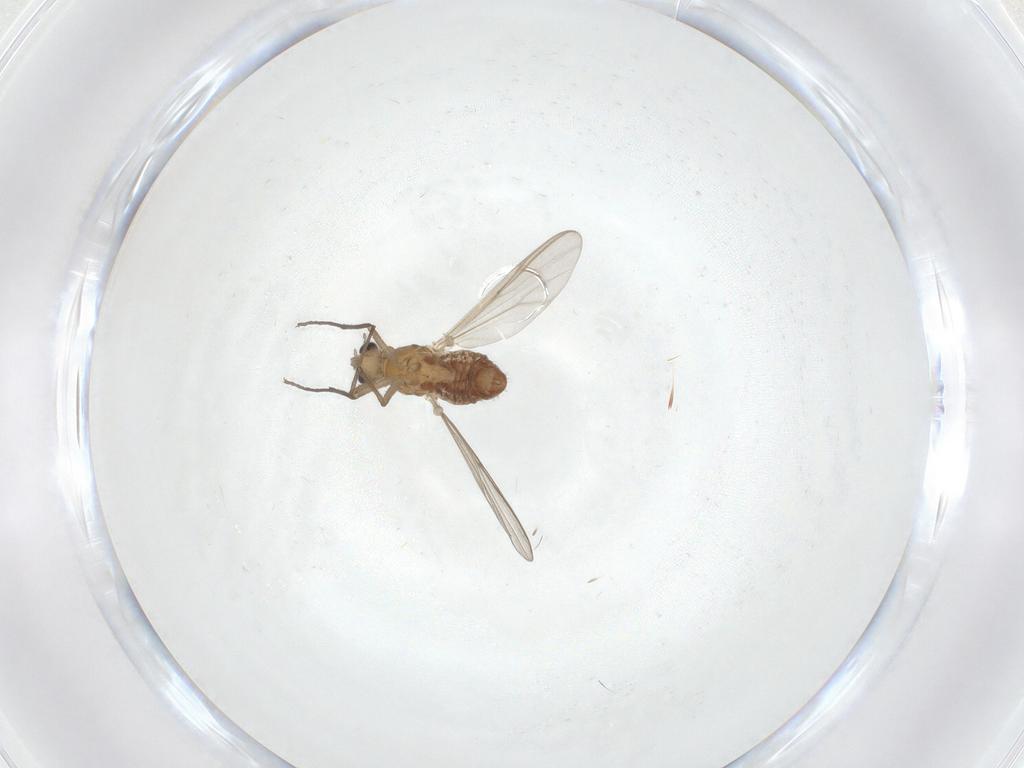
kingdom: Animalia
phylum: Arthropoda
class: Insecta
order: Diptera
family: Chironomidae
